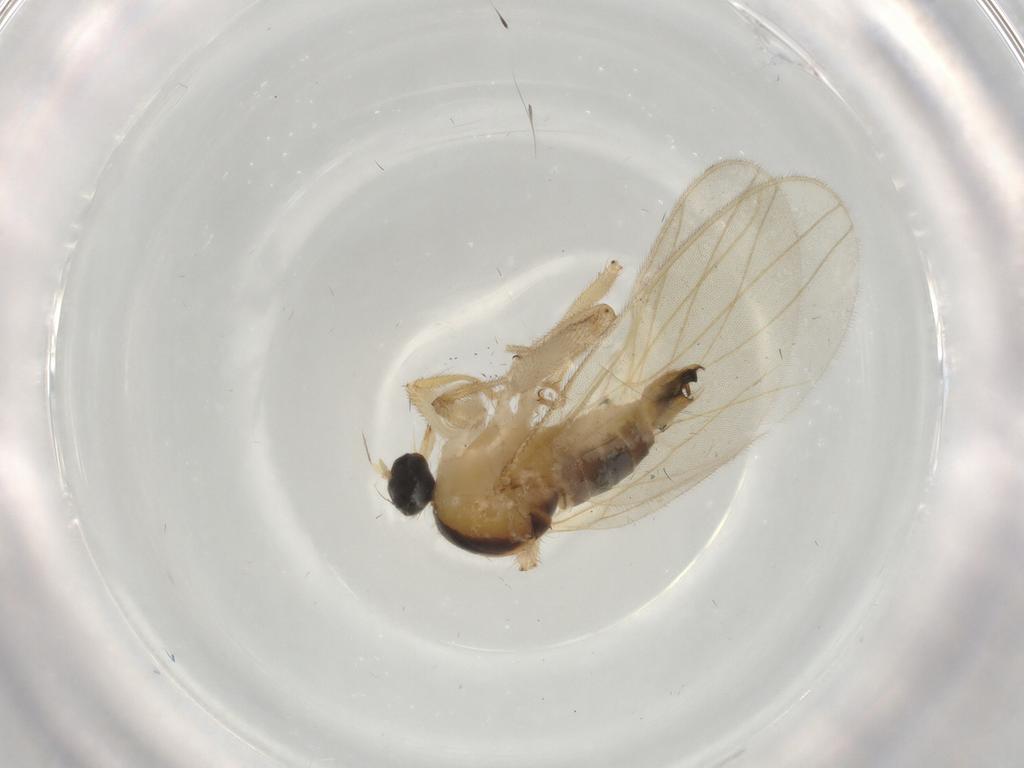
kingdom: Animalia
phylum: Arthropoda
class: Insecta
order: Diptera
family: Hybotidae
